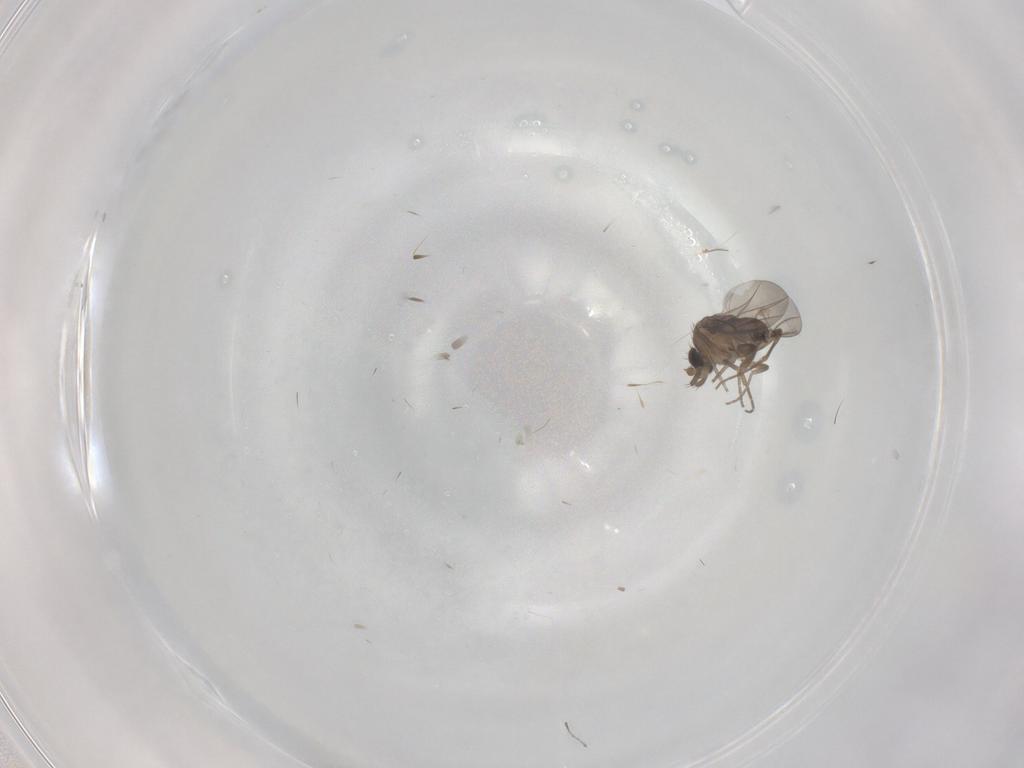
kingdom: Animalia
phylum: Arthropoda
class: Insecta
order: Diptera
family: Phoridae
